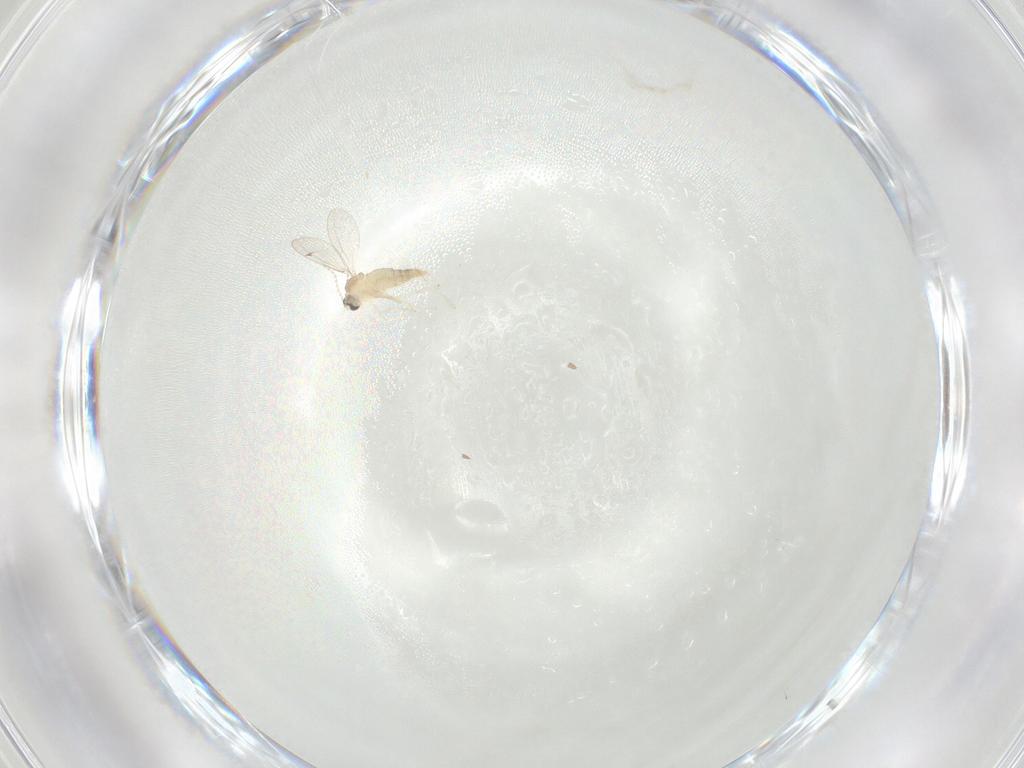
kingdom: Animalia
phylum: Arthropoda
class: Insecta
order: Diptera
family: Cecidomyiidae
